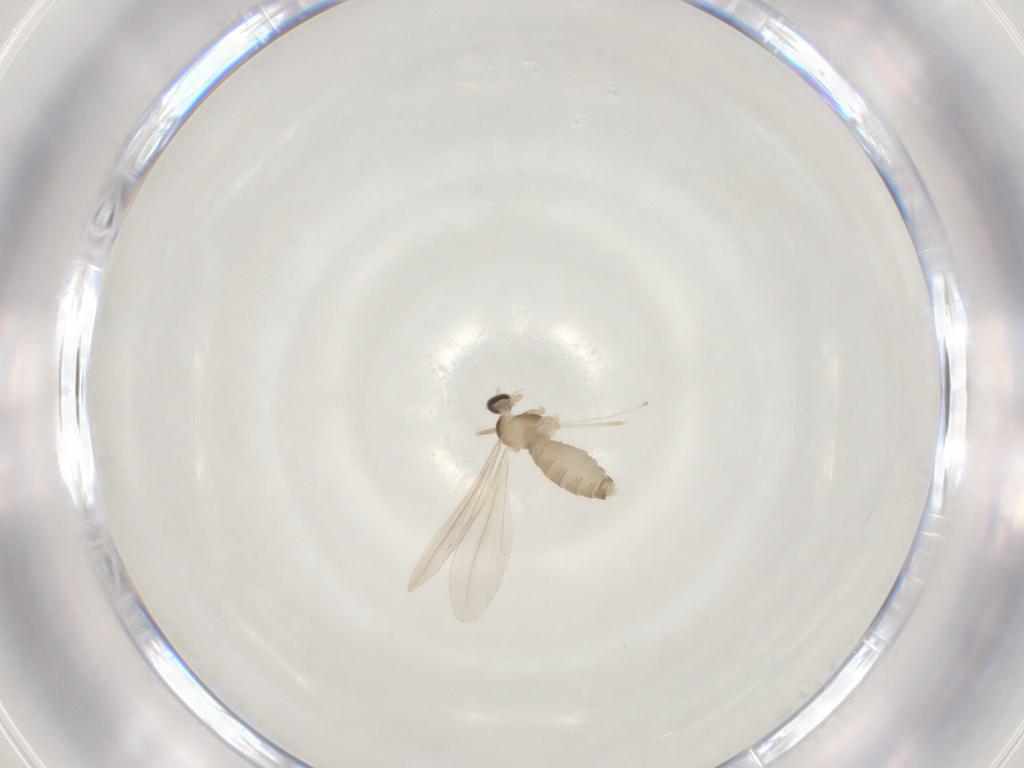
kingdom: Animalia
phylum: Arthropoda
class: Insecta
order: Diptera
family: Cecidomyiidae
